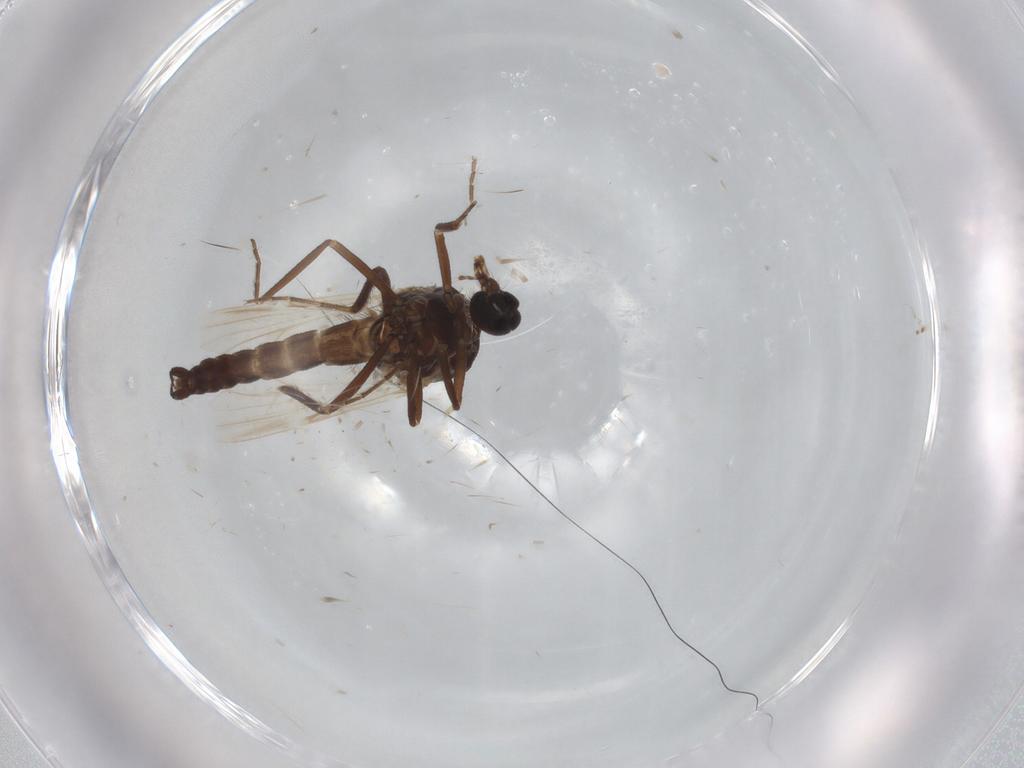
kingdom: Animalia
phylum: Arthropoda
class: Insecta
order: Diptera
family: Ceratopogonidae
